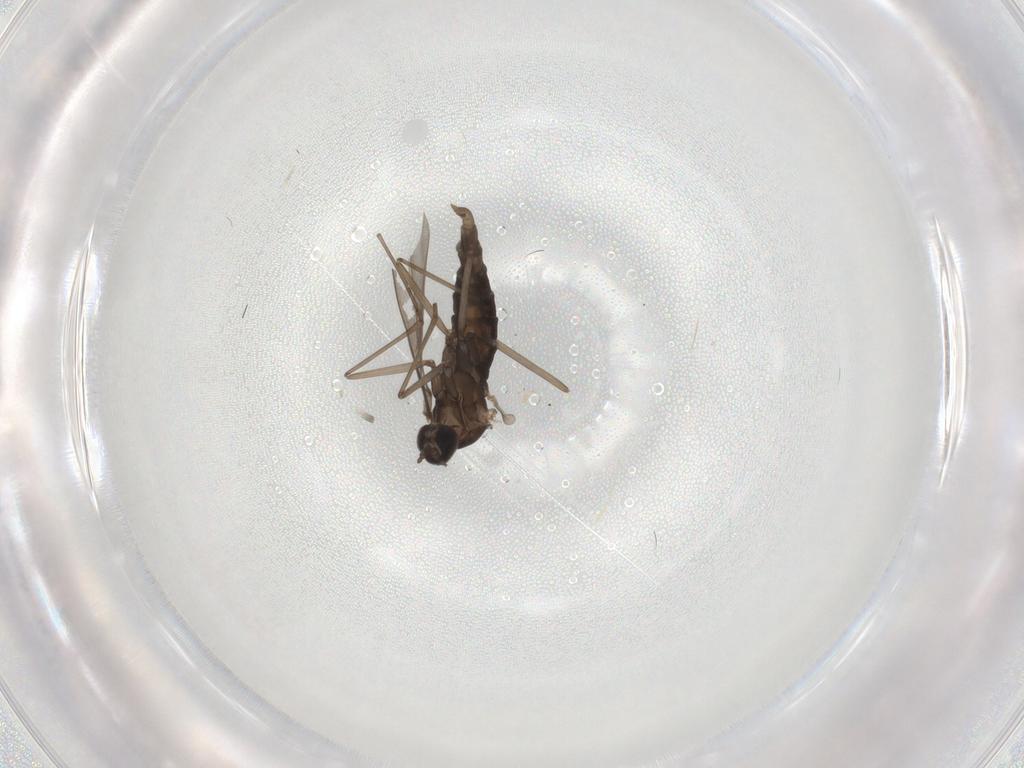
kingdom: Animalia
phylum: Arthropoda
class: Insecta
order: Diptera
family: Cecidomyiidae
